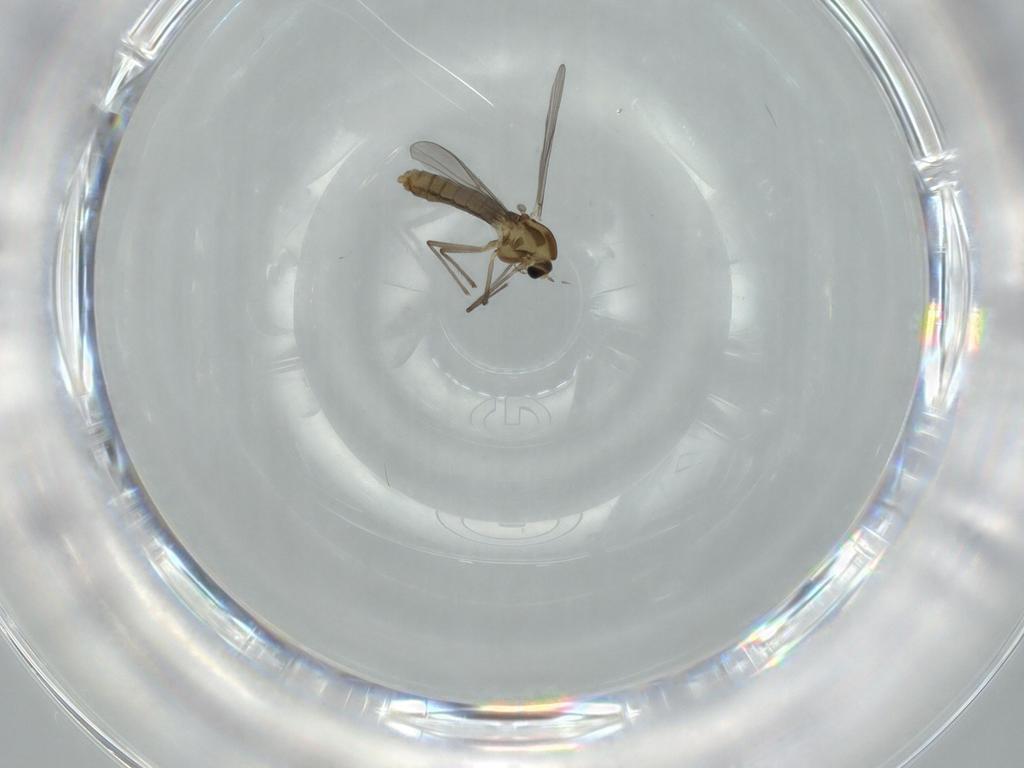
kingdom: Animalia
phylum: Arthropoda
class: Insecta
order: Diptera
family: Chironomidae
